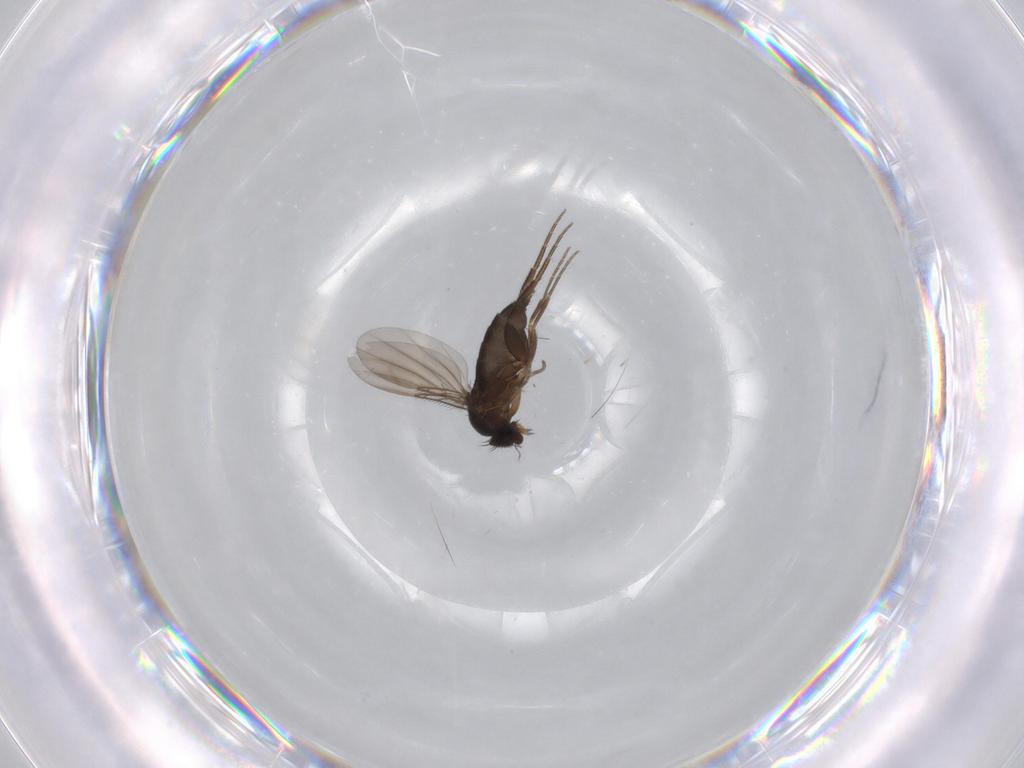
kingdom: Animalia
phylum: Arthropoda
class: Insecta
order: Diptera
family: Phoridae
